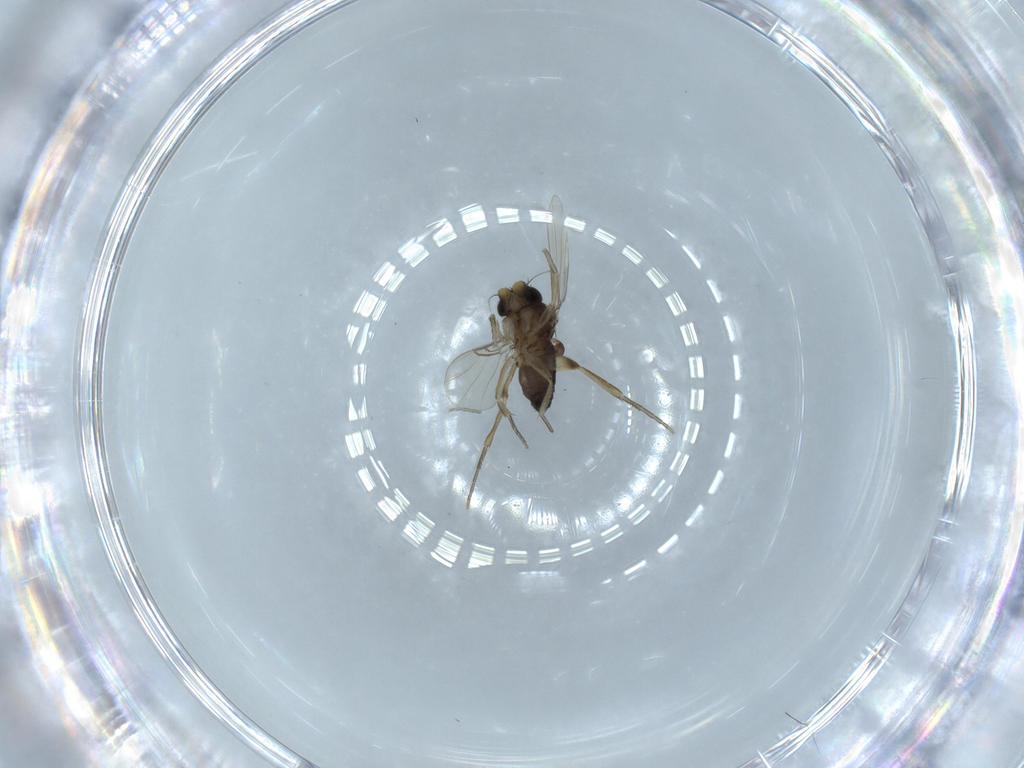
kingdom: Animalia
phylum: Arthropoda
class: Insecta
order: Diptera
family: Phoridae
